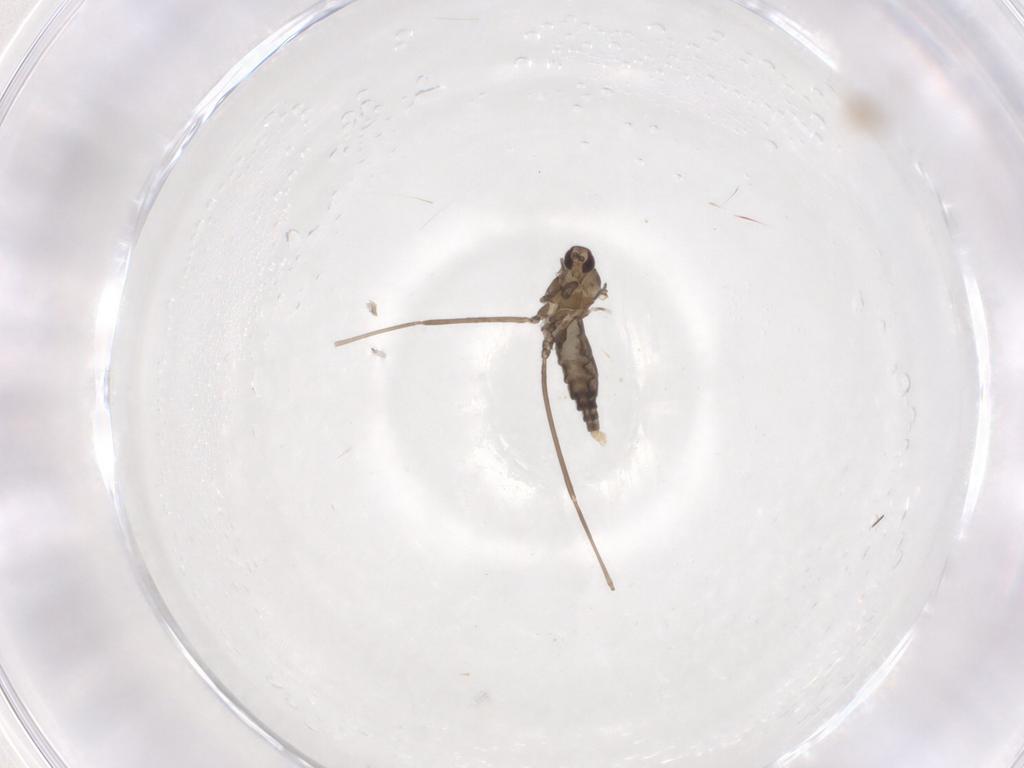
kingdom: Animalia
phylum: Arthropoda
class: Insecta
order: Diptera
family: Cecidomyiidae
